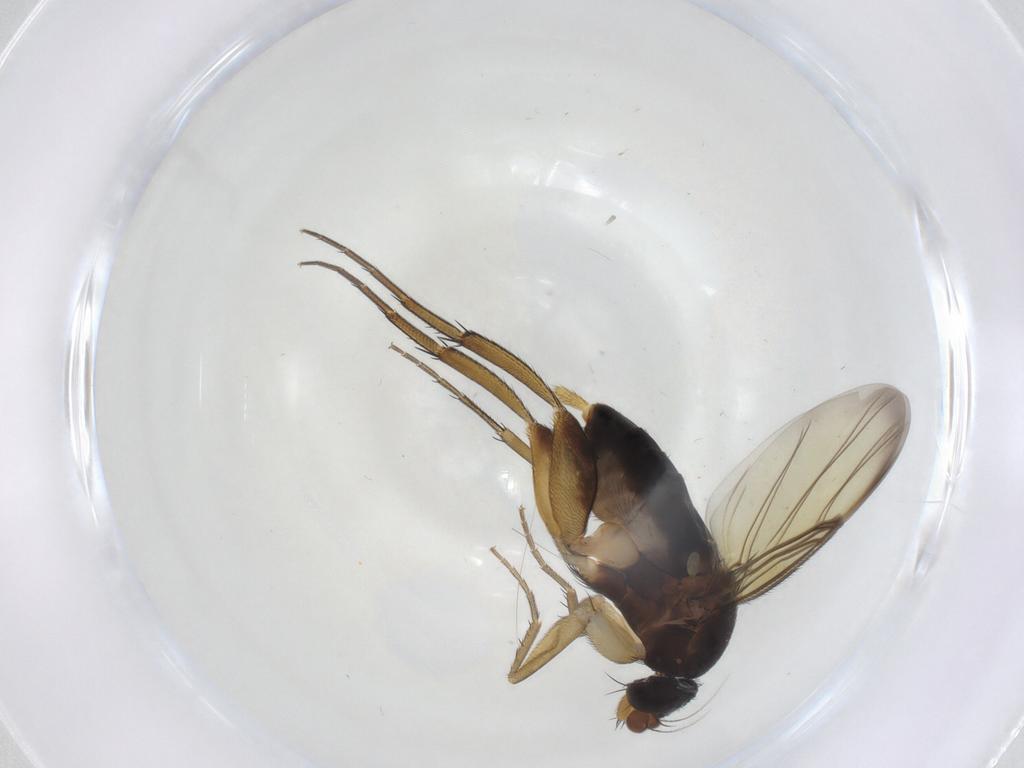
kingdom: Animalia
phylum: Arthropoda
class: Insecta
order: Diptera
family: Phoridae
